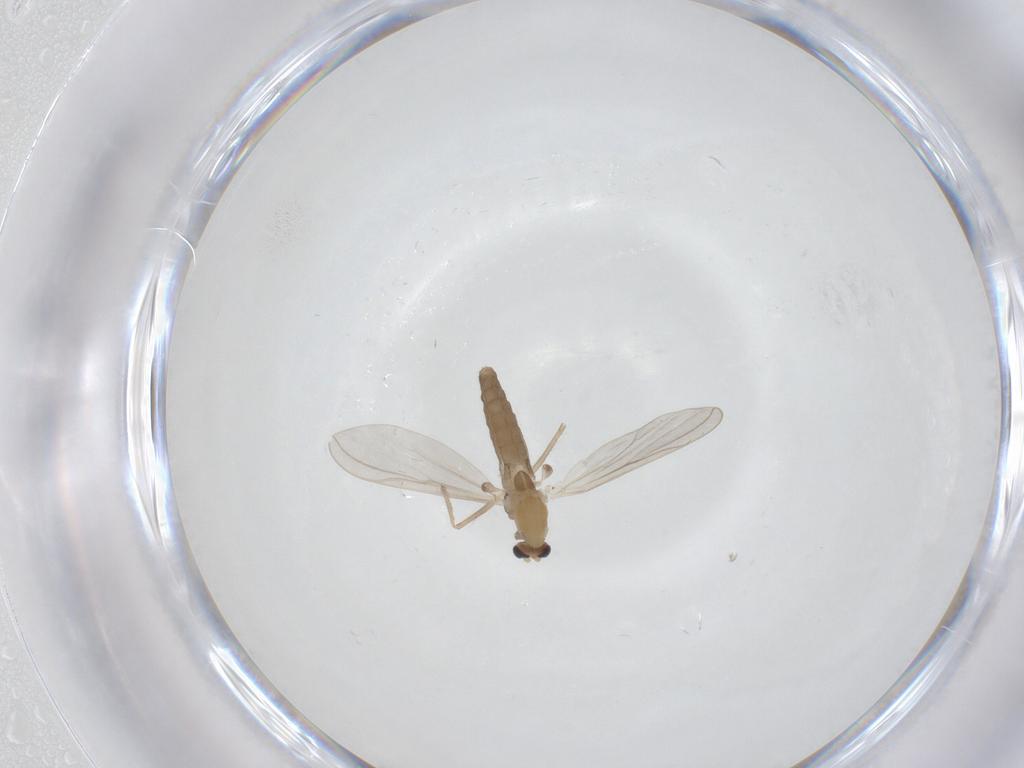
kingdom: Animalia
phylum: Arthropoda
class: Insecta
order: Diptera
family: Chironomidae
